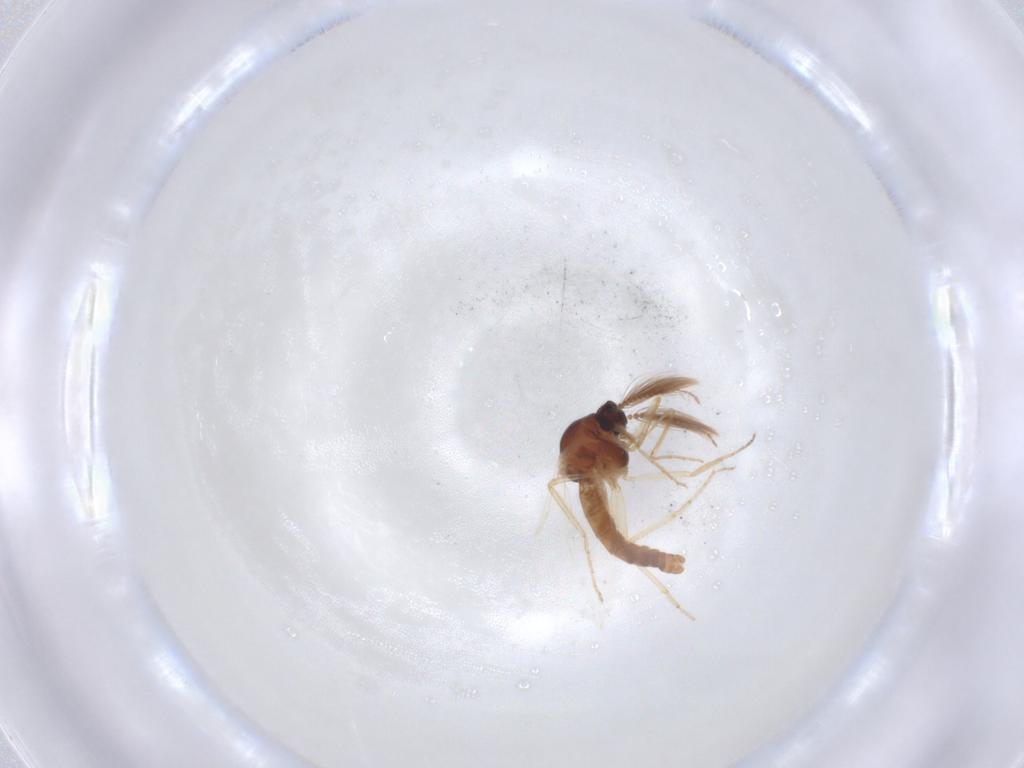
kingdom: Animalia
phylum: Arthropoda
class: Insecta
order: Diptera
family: Ceratopogonidae
